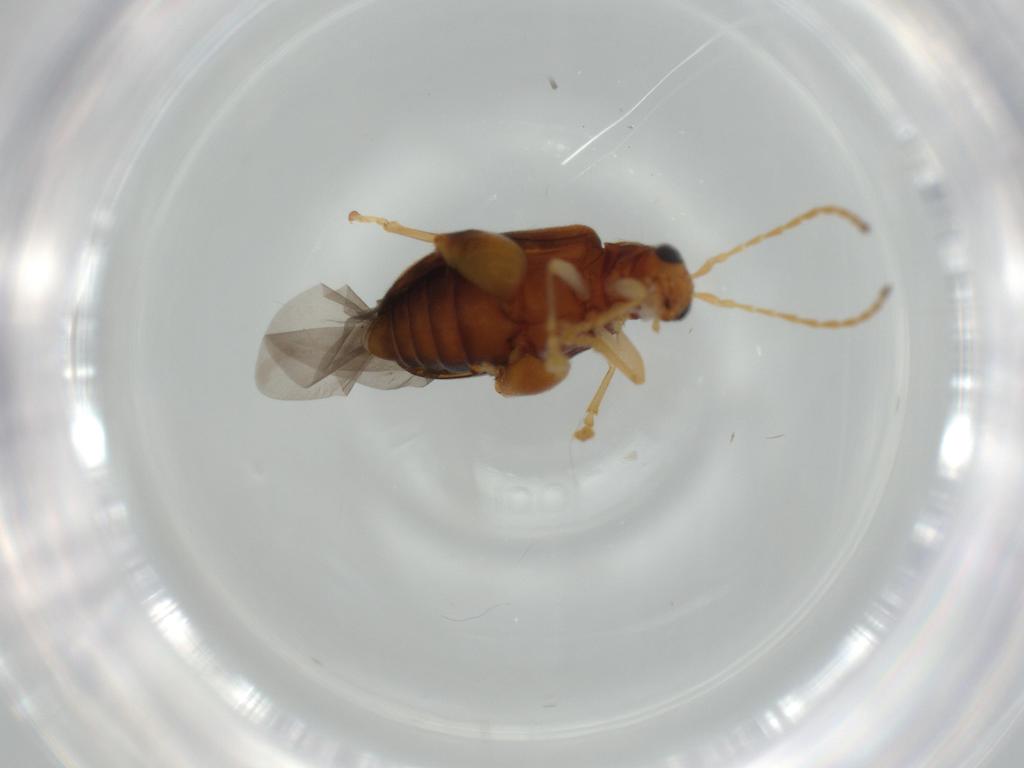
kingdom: Animalia
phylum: Arthropoda
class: Insecta
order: Coleoptera
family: Chrysomelidae
